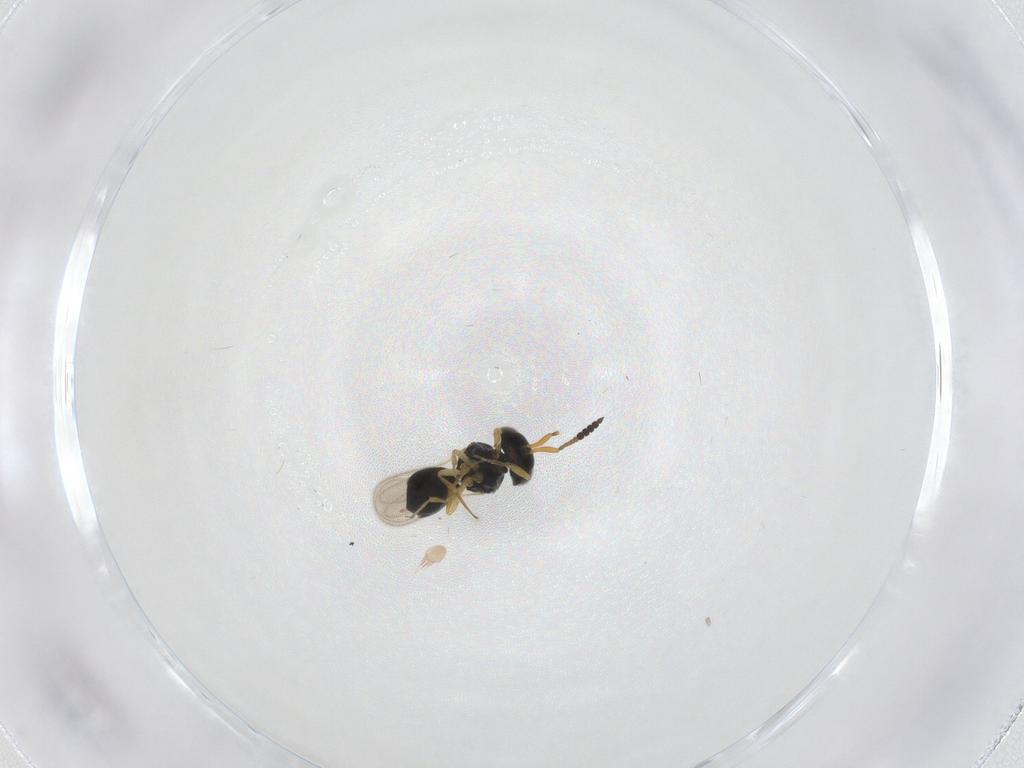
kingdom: Animalia
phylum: Arthropoda
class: Insecta
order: Hymenoptera
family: Scelionidae
